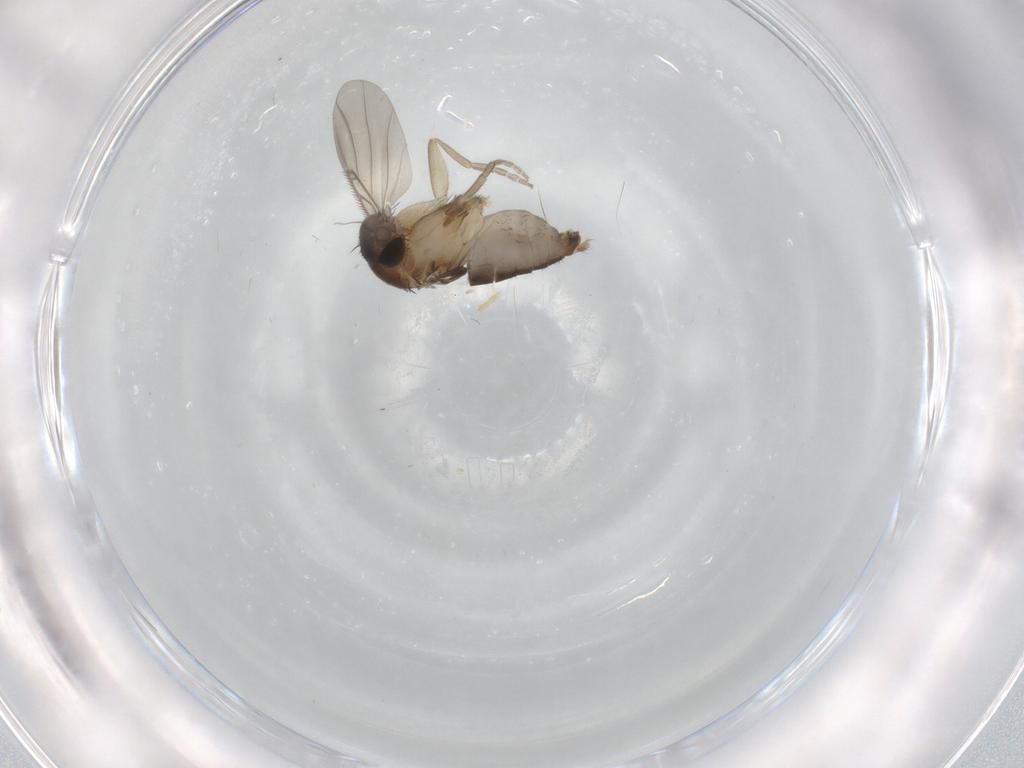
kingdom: Animalia
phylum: Arthropoda
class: Insecta
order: Diptera
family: Phoridae
